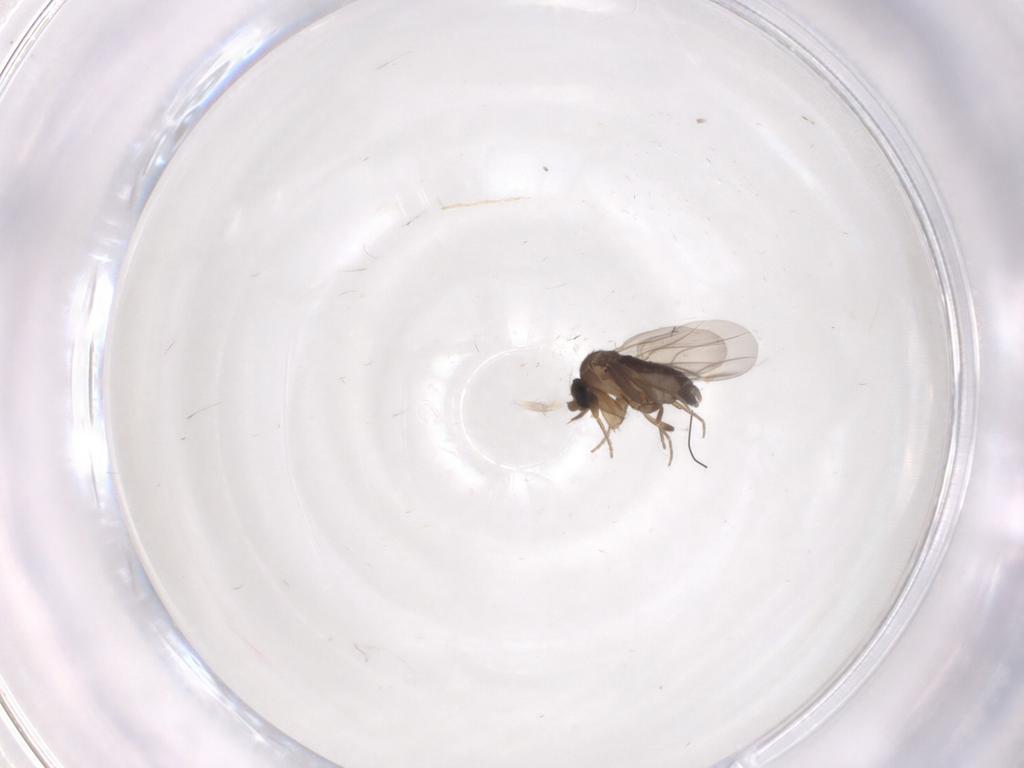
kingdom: Animalia
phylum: Arthropoda
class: Insecta
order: Diptera
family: Phoridae
